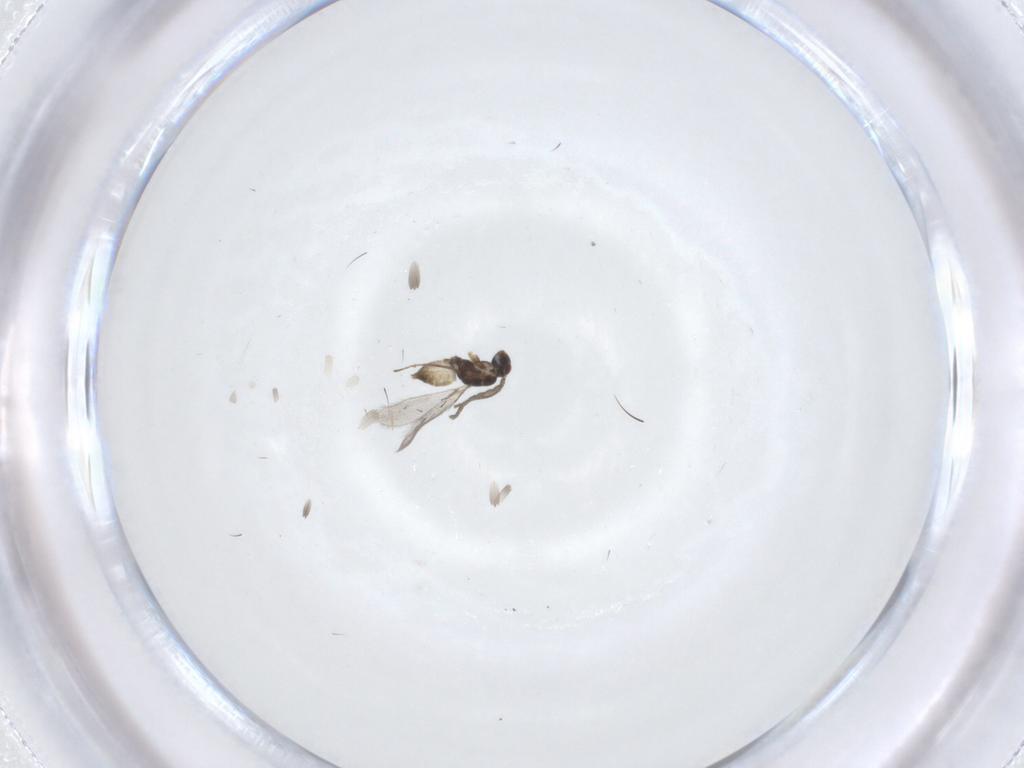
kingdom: Animalia
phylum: Arthropoda
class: Insecta
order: Hymenoptera
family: Mymaridae
